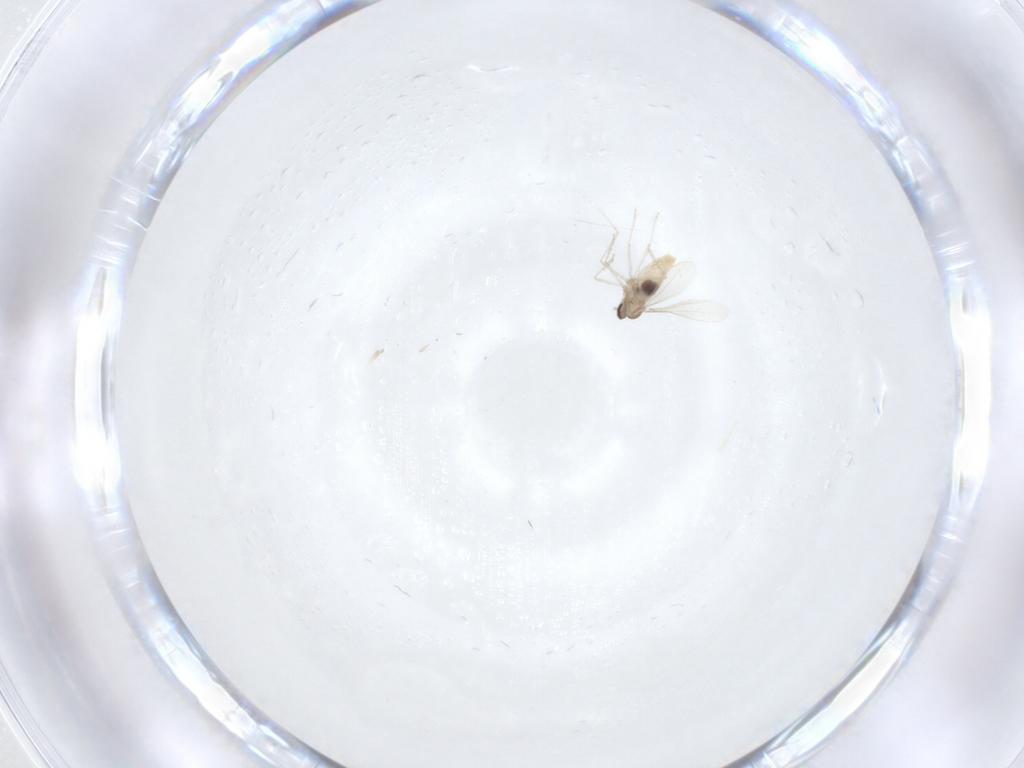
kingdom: Animalia
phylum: Arthropoda
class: Insecta
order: Diptera
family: Cecidomyiidae
